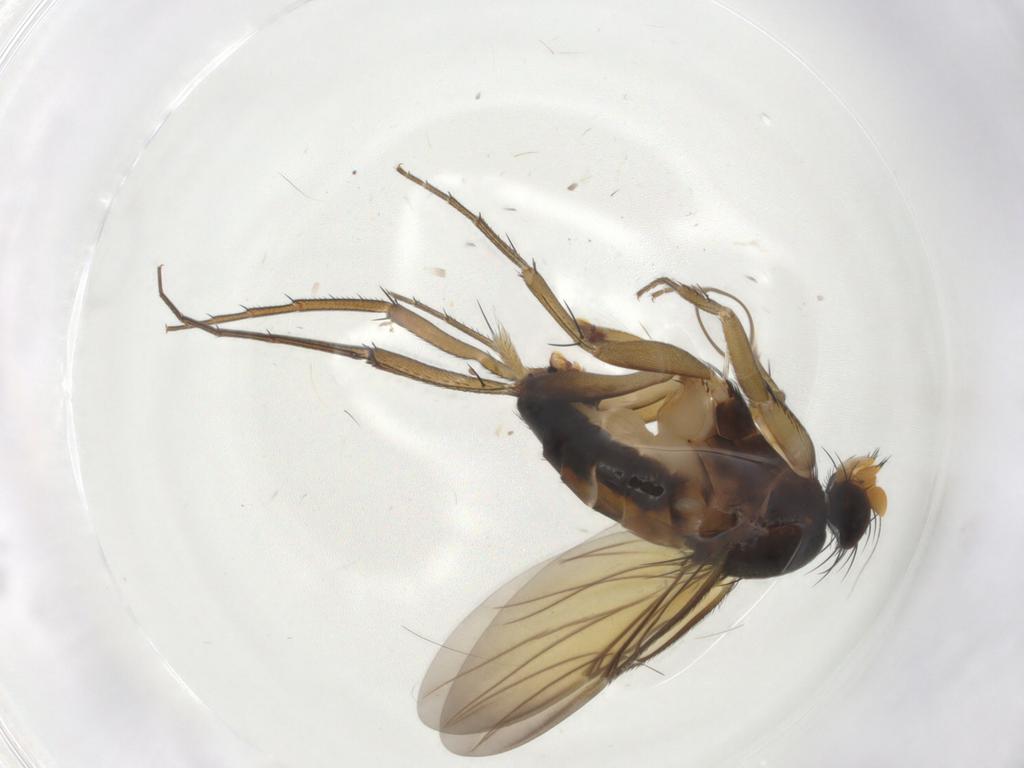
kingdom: Animalia
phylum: Arthropoda
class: Insecta
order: Diptera
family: Phoridae
